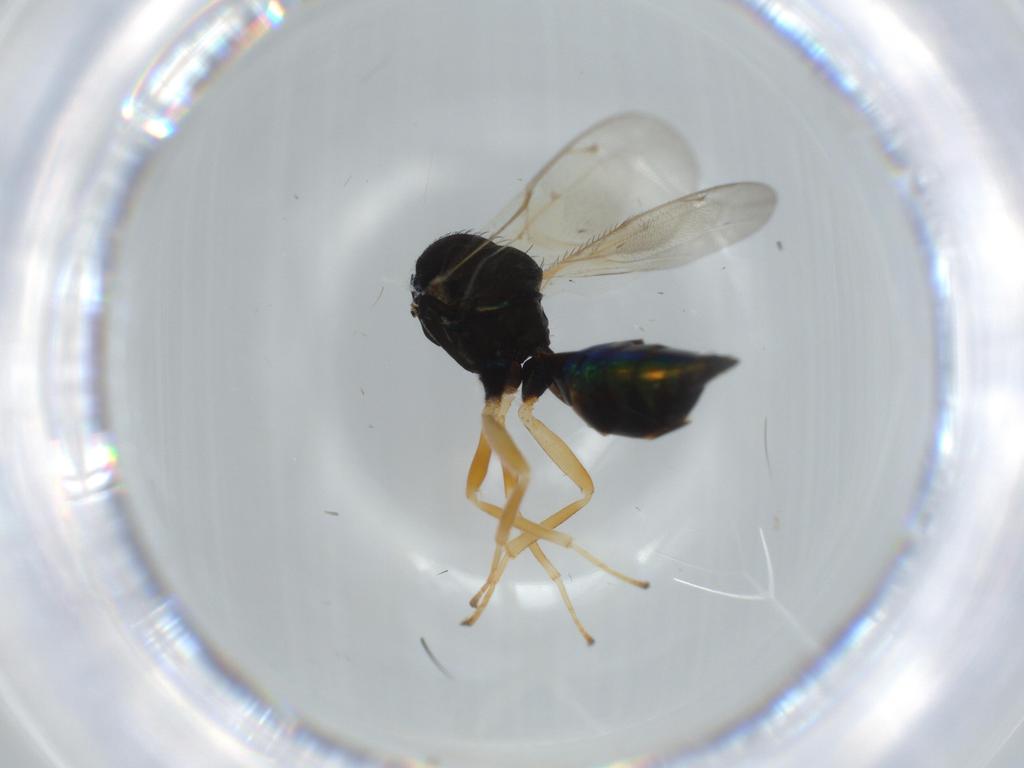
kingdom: Animalia
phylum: Arthropoda
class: Insecta
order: Hymenoptera
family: Pteromalidae
